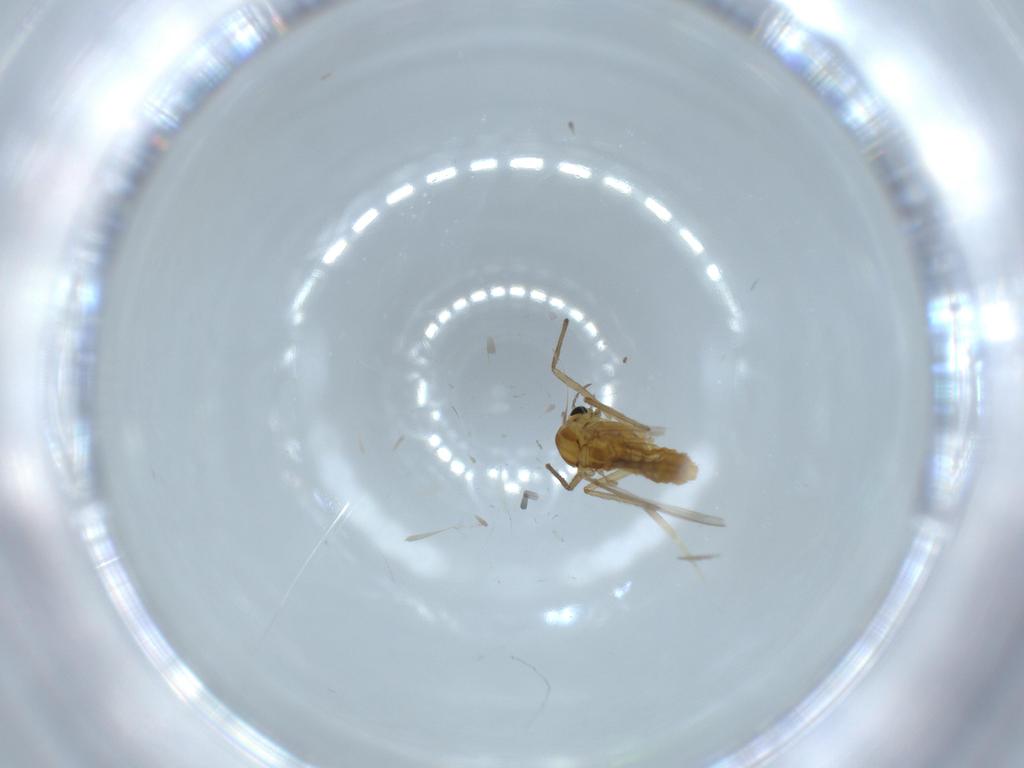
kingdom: Animalia
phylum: Arthropoda
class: Insecta
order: Diptera
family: Chironomidae
